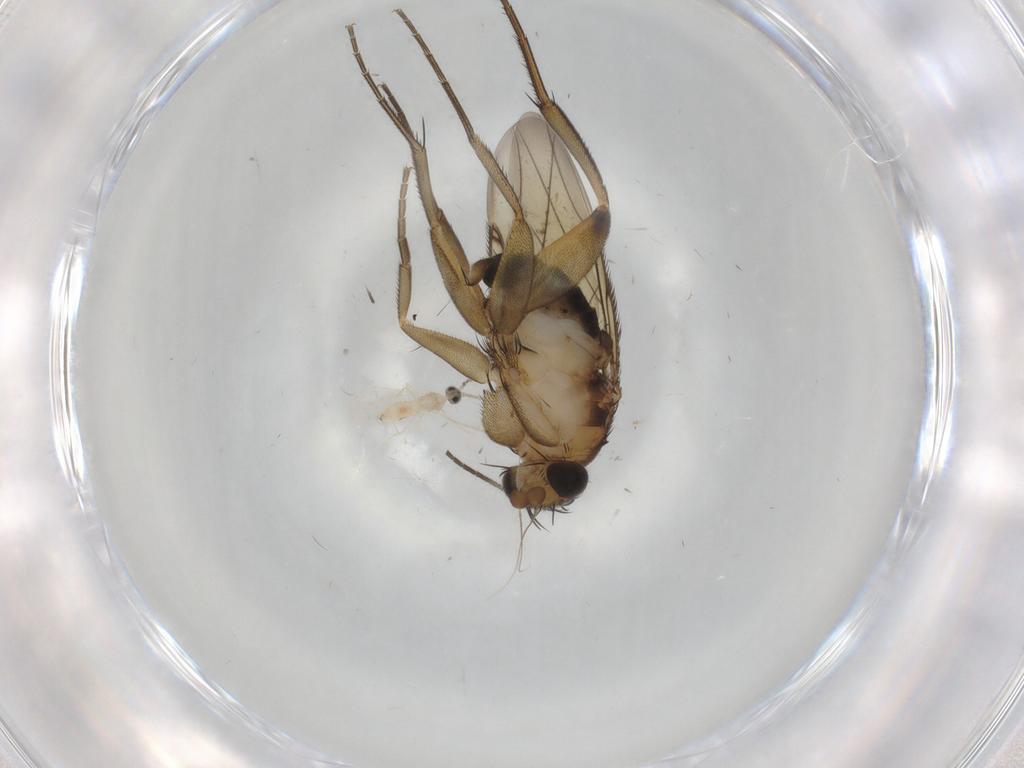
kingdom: Animalia
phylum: Arthropoda
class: Insecta
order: Diptera
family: Phoridae
